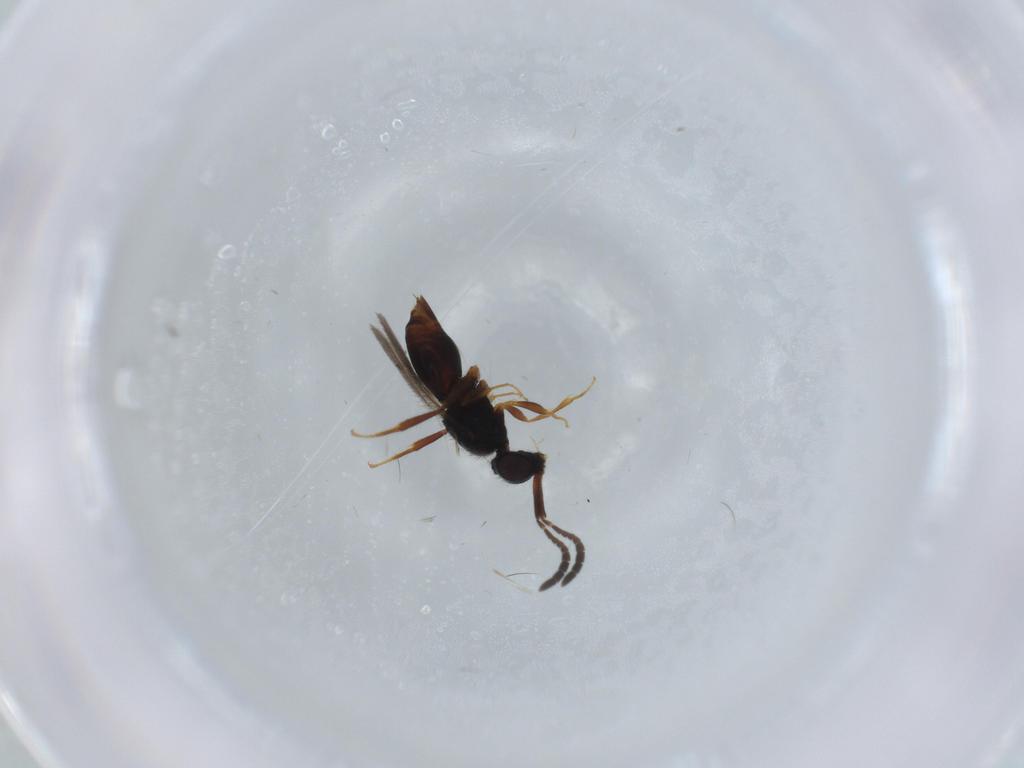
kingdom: Animalia
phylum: Arthropoda
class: Insecta
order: Hymenoptera
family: Ceraphronidae
